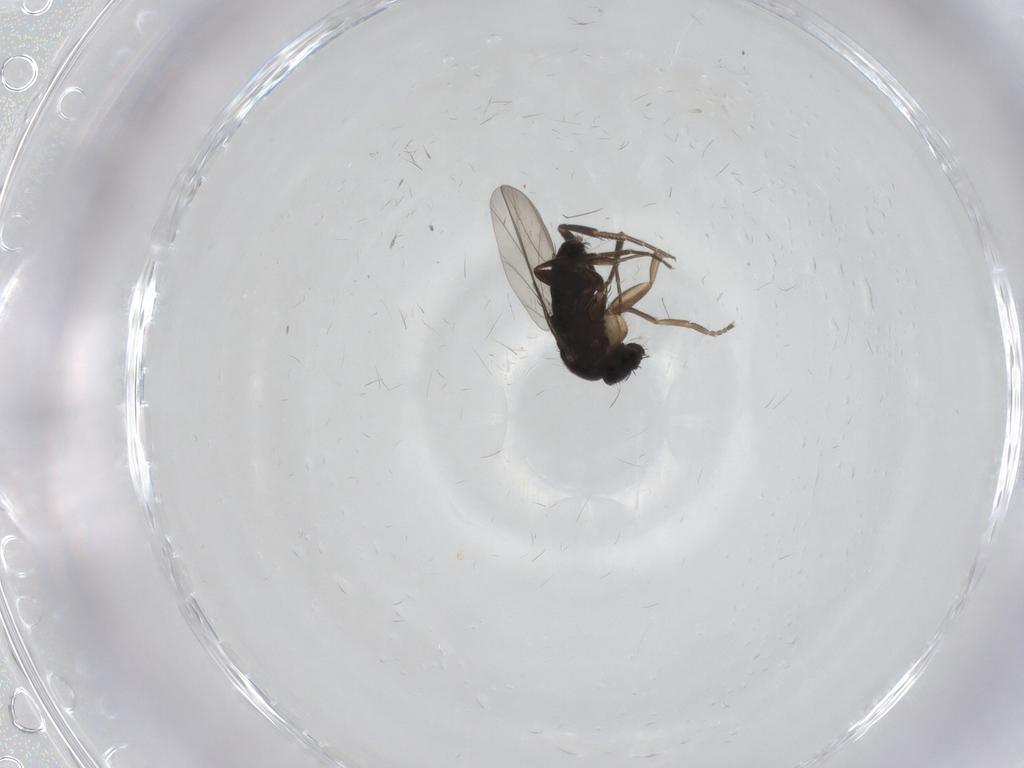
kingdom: Animalia
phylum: Arthropoda
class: Insecta
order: Diptera
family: Phoridae
